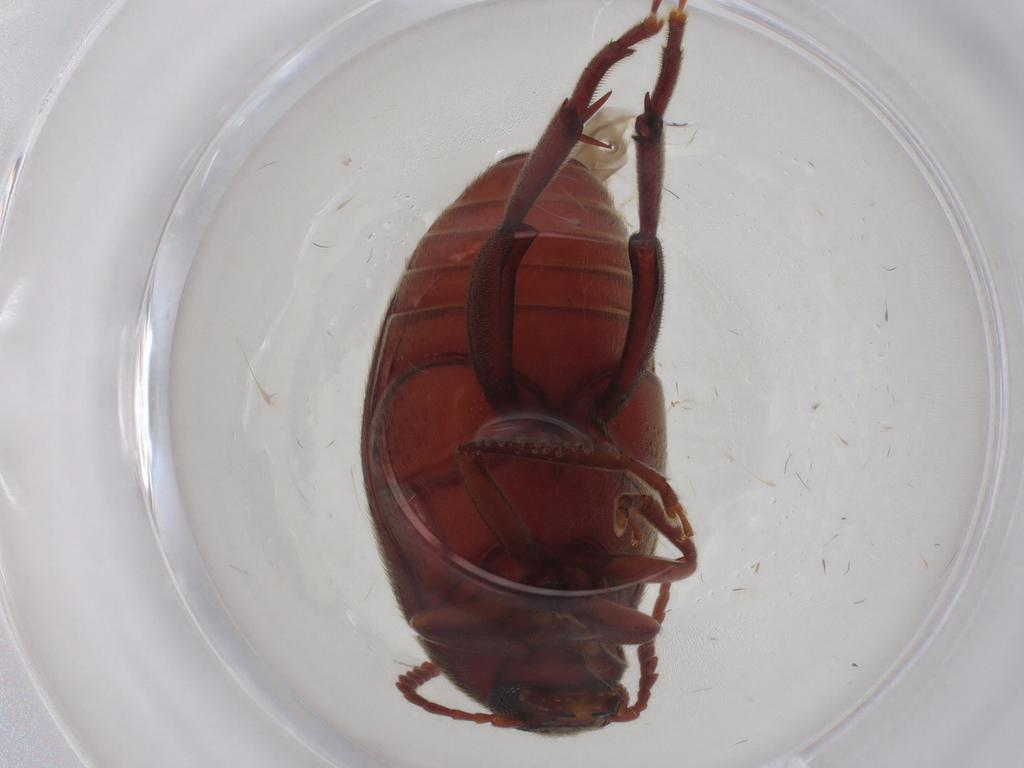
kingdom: Animalia
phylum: Arthropoda
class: Insecta
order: Coleoptera
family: Chrysomelidae
